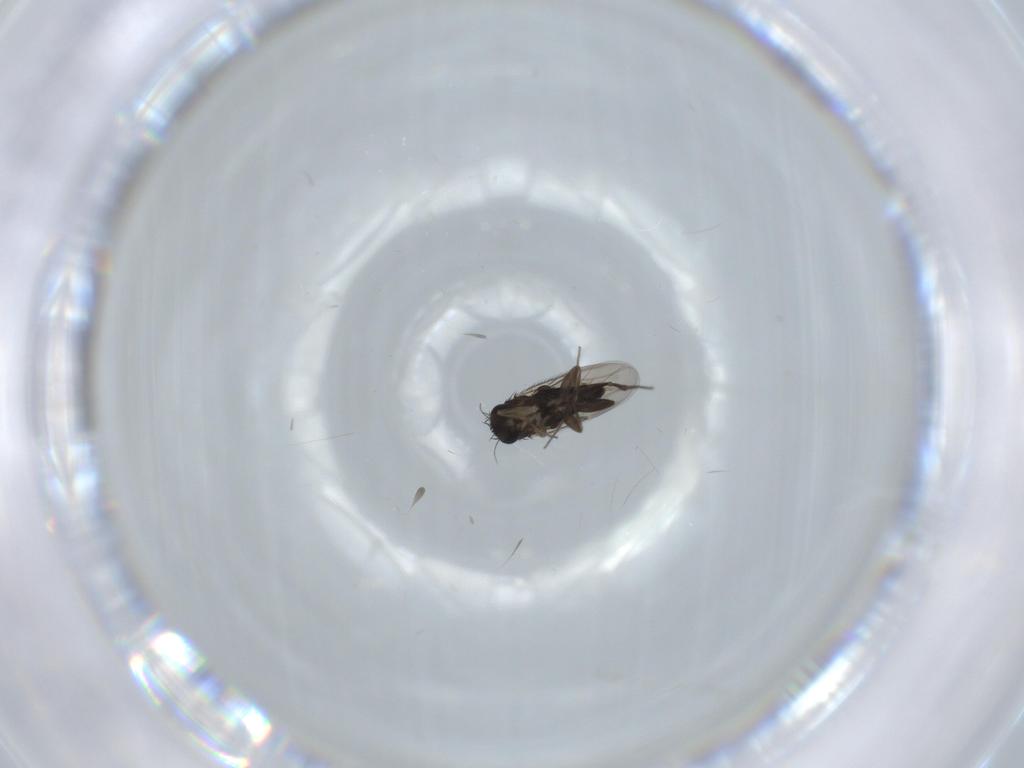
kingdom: Animalia
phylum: Arthropoda
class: Insecta
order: Diptera
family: Phoridae
